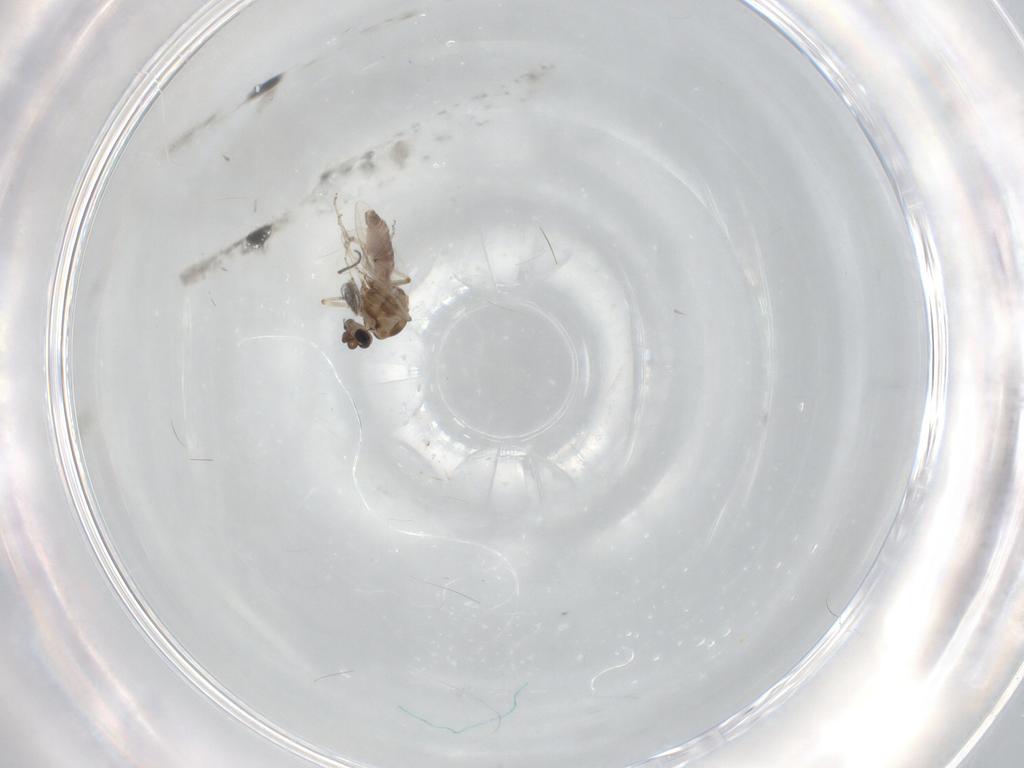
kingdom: Animalia
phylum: Arthropoda
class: Insecta
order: Diptera
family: Ceratopogonidae
